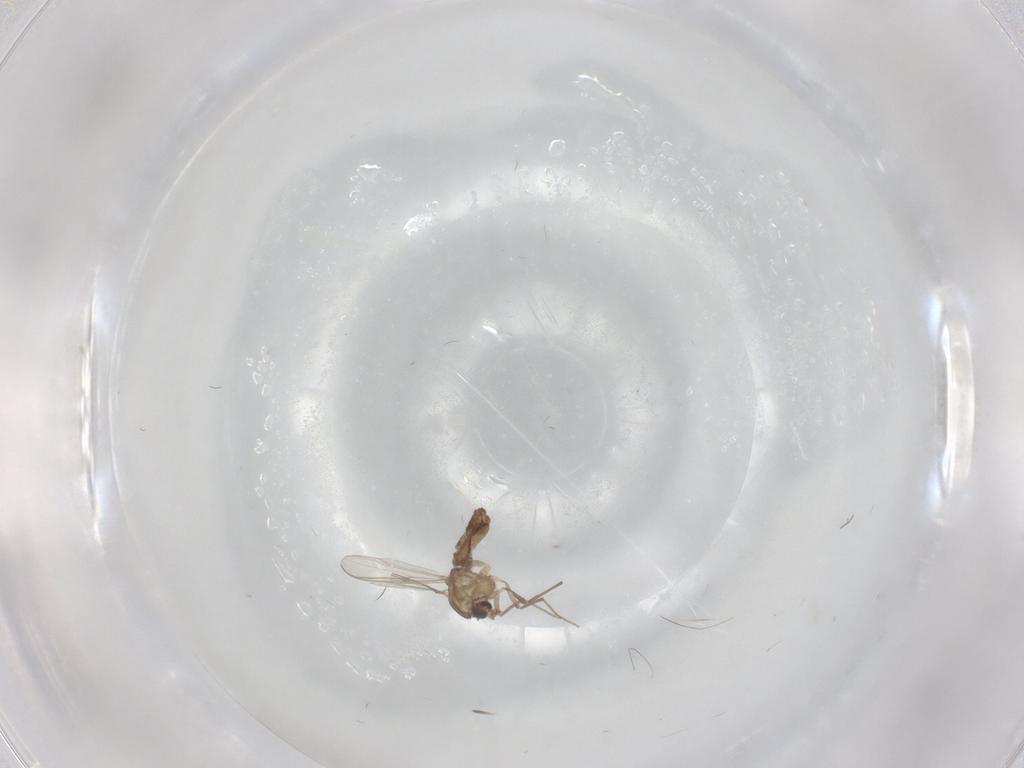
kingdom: Animalia
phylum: Arthropoda
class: Insecta
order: Diptera
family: Chironomidae
